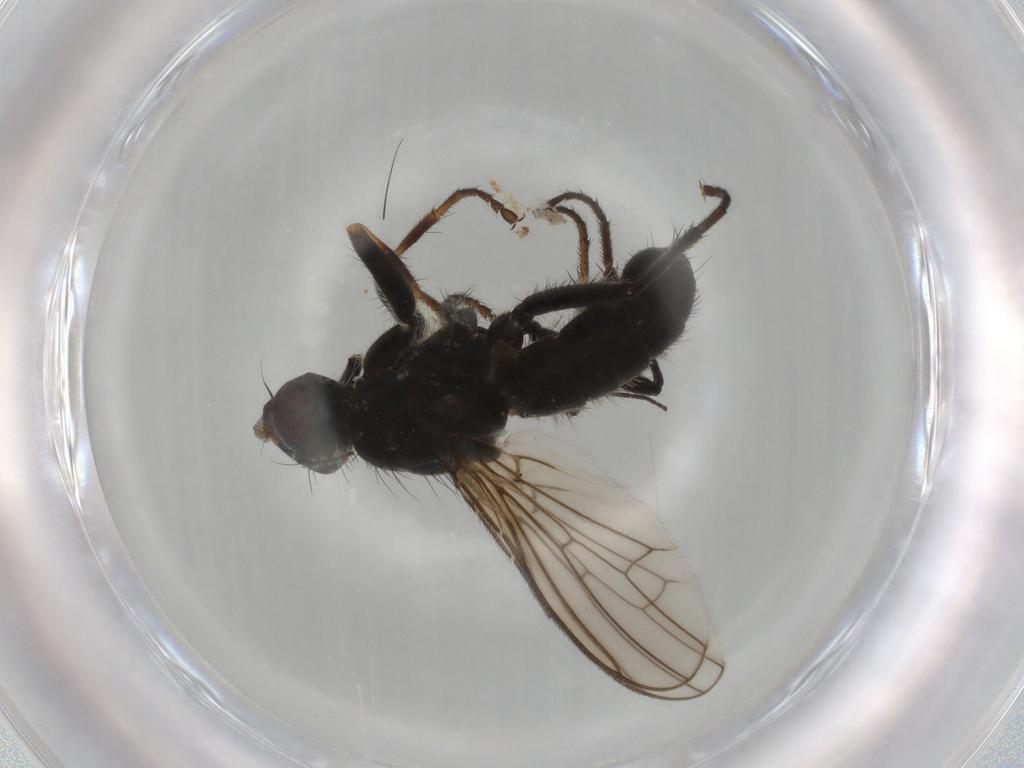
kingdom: Animalia
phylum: Arthropoda
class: Insecta
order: Diptera
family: Scathophagidae
